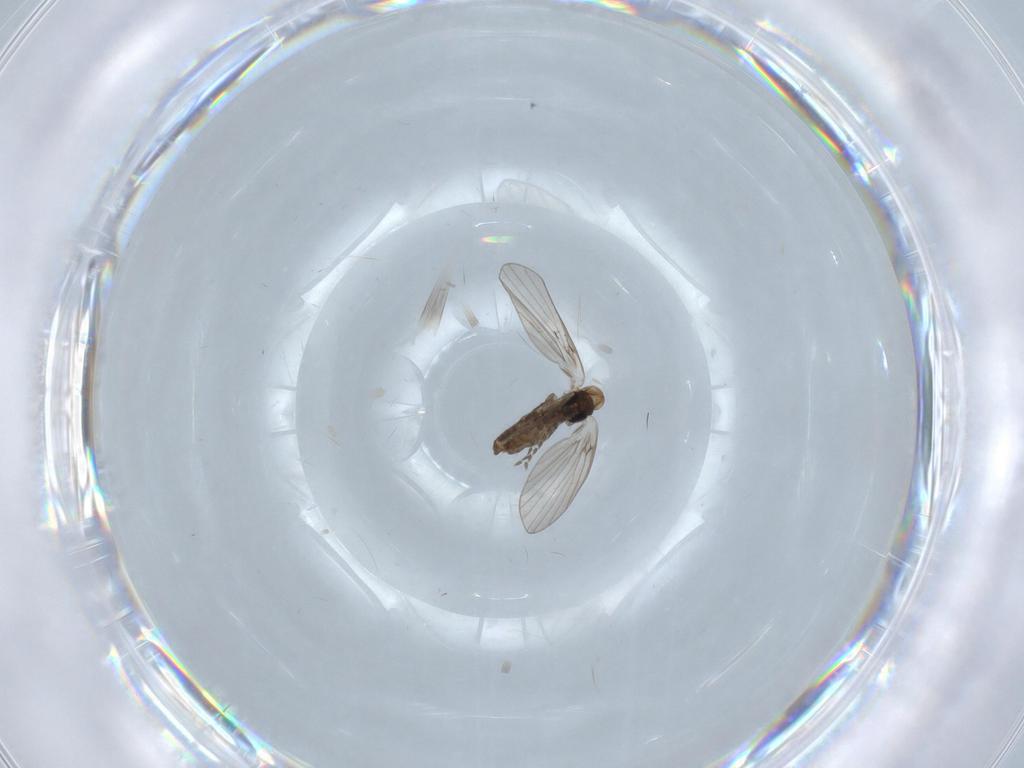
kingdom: Animalia
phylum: Arthropoda
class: Insecta
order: Diptera
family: Psychodidae
